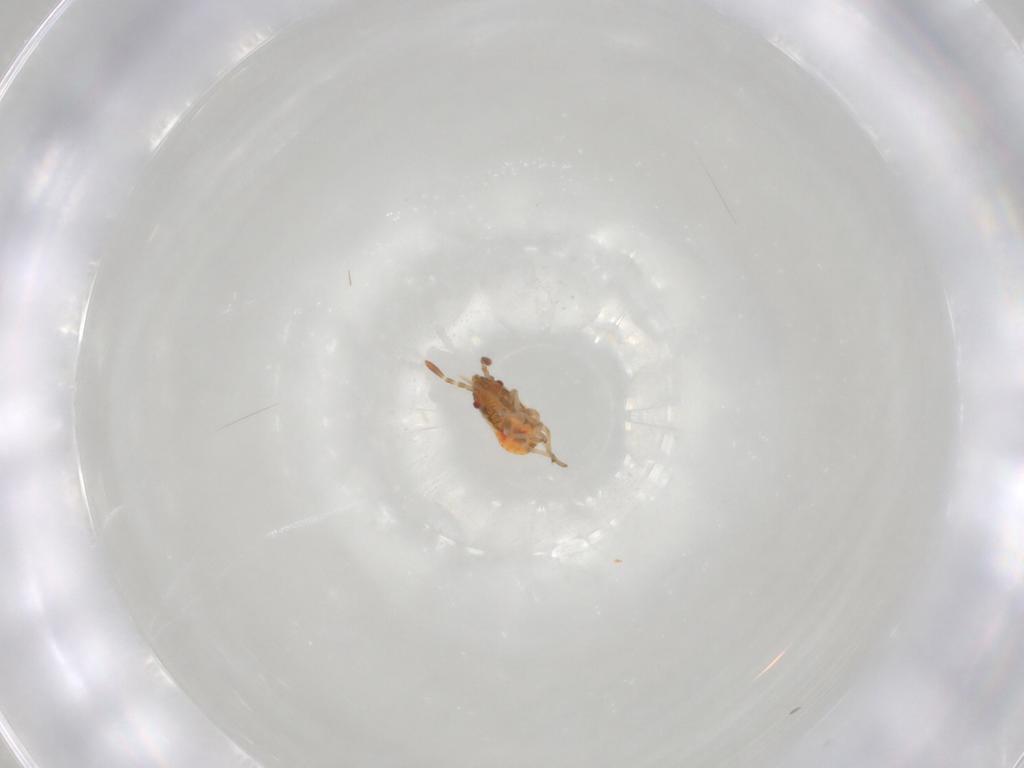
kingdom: Animalia
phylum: Arthropoda
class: Insecta
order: Hemiptera
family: Lygaeidae
